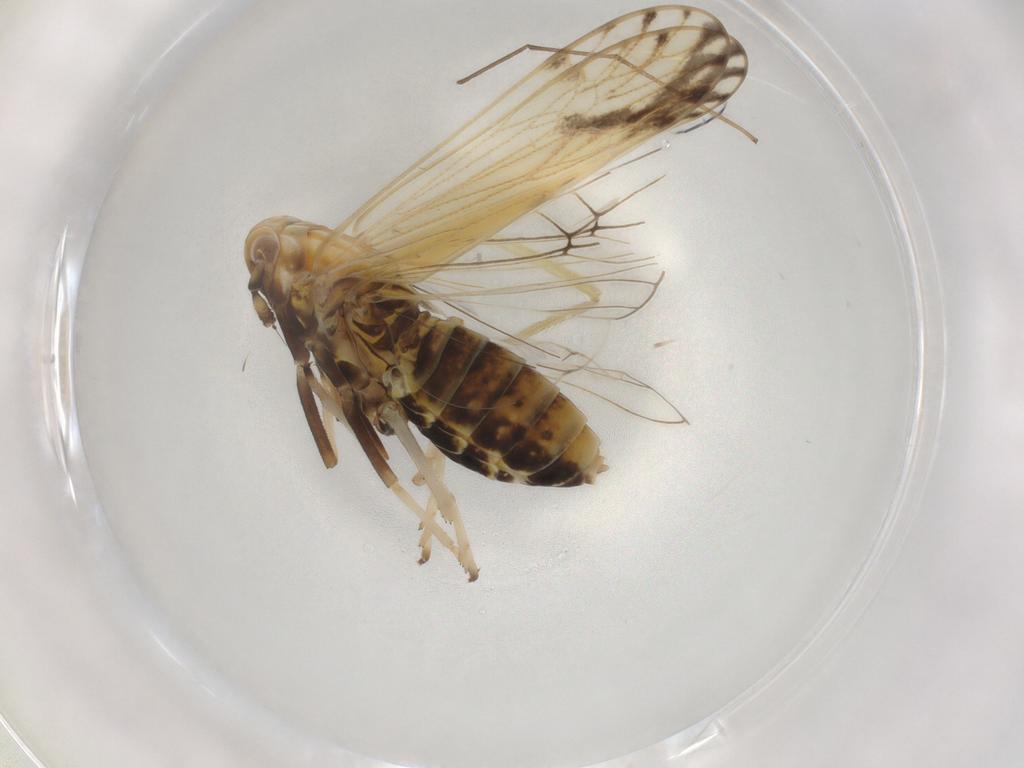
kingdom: Animalia
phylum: Arthropoda
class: Insecta
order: Hemiptera
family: Delphacidae
